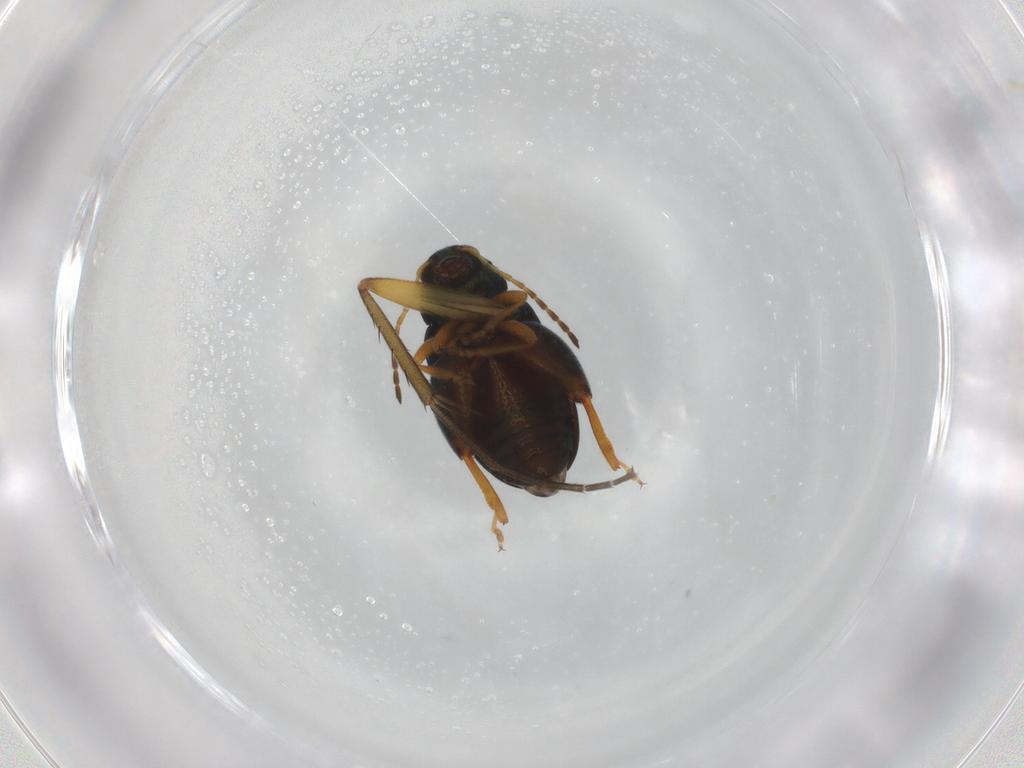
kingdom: Animalia
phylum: Arthropoda
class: Insecta
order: Coleoptera
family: Chrysomelidae
